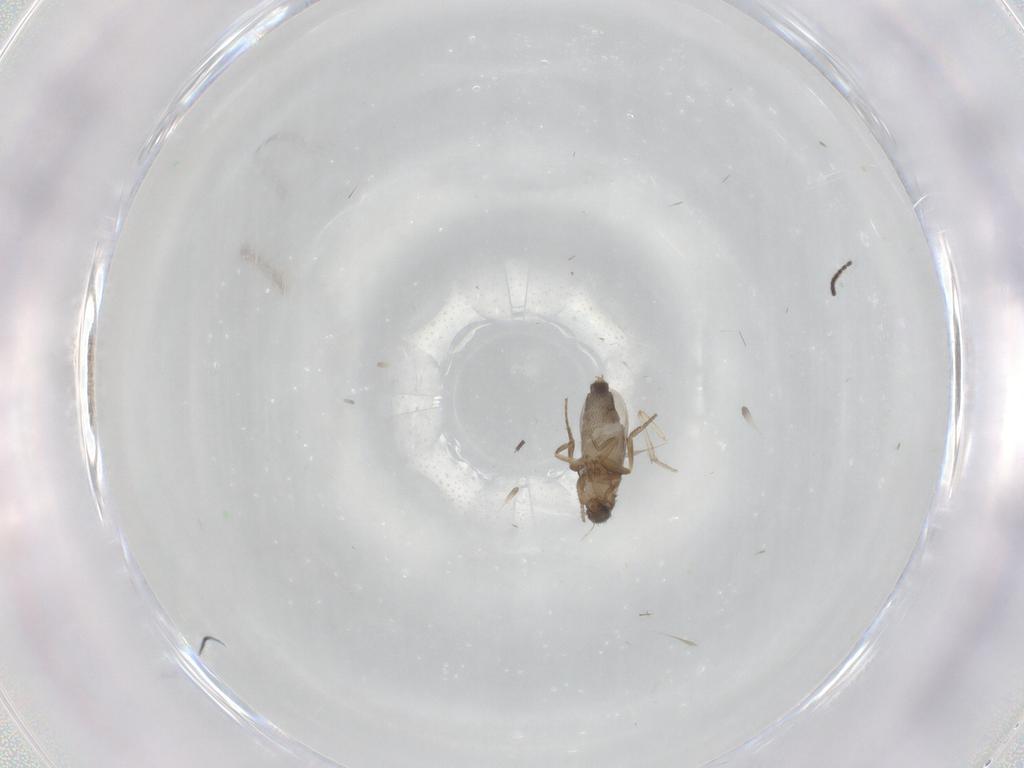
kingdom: Animalia
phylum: Arthropoda
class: Insecta
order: Diptera
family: Phoridae
